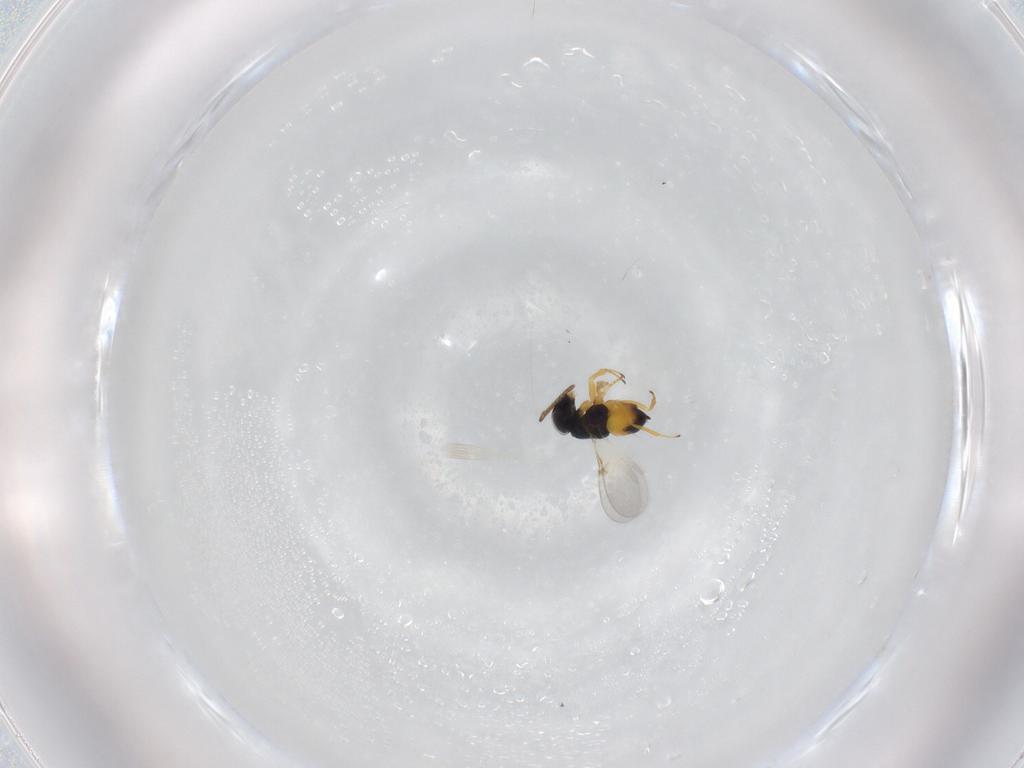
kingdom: Animalia
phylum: Arthropoda
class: Insecta
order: Hymenoptera
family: Encyrtidae
